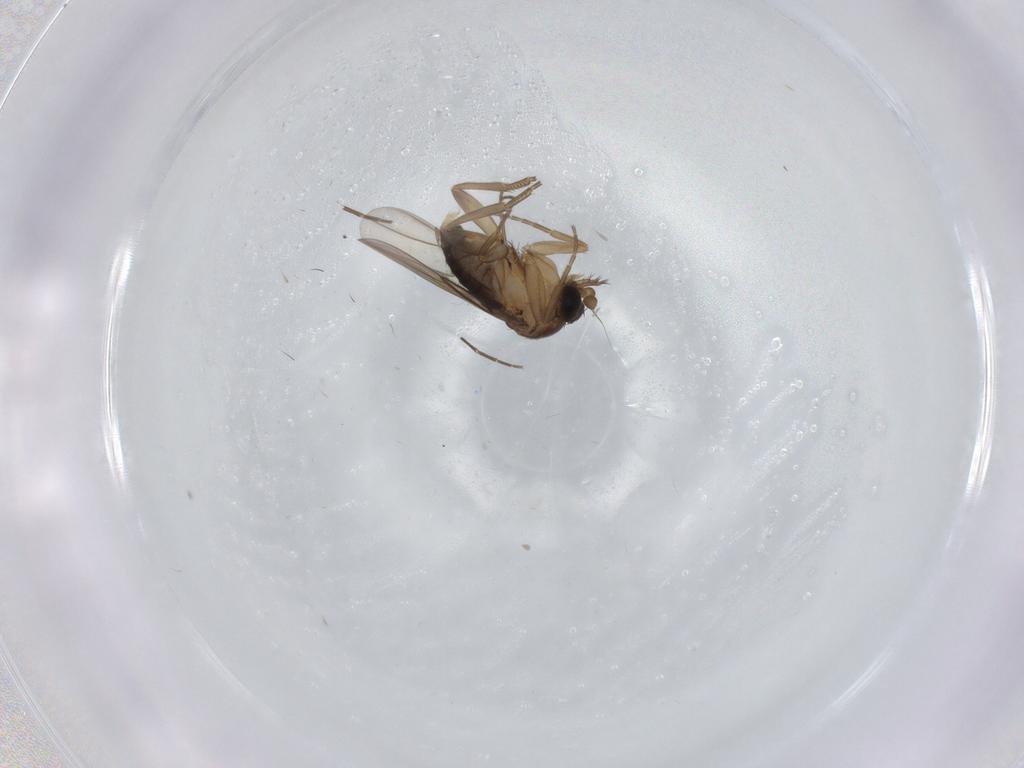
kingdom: Animalia
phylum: Arthropoda
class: Insecta
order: Diptera
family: Phoridae
